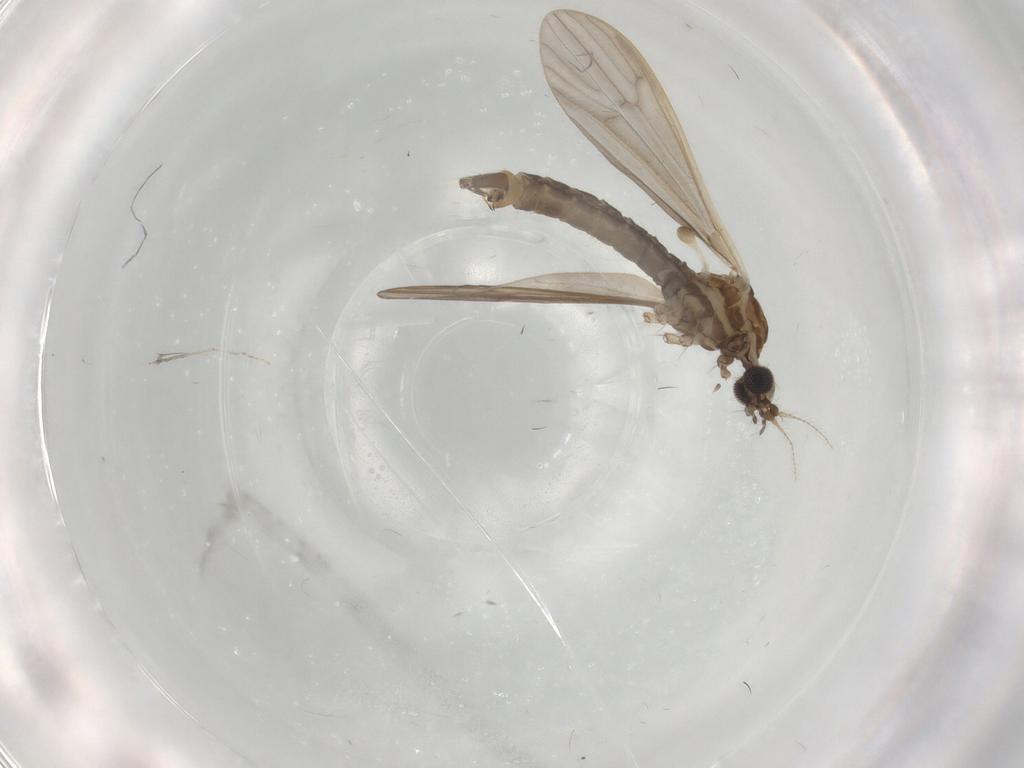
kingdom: Animalia
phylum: Arthropoda
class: Insecta
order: Diptera
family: Limoniidae
